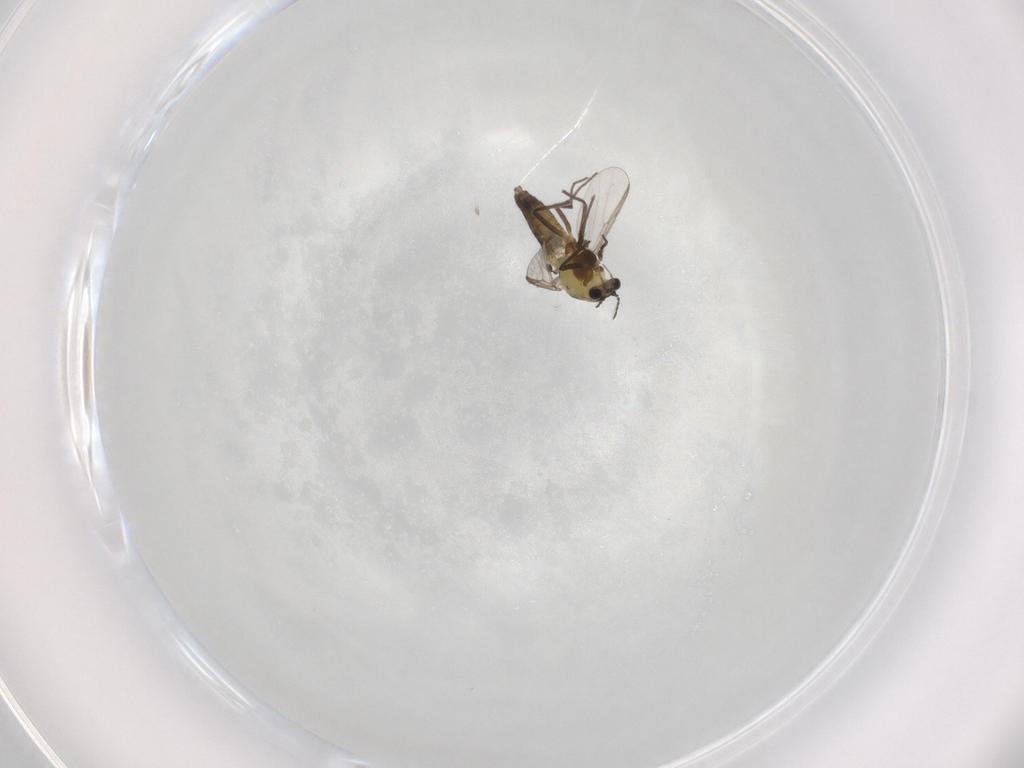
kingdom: Animalia
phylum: Arthropoda
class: Insecta
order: Diptera
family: Chironomidae
